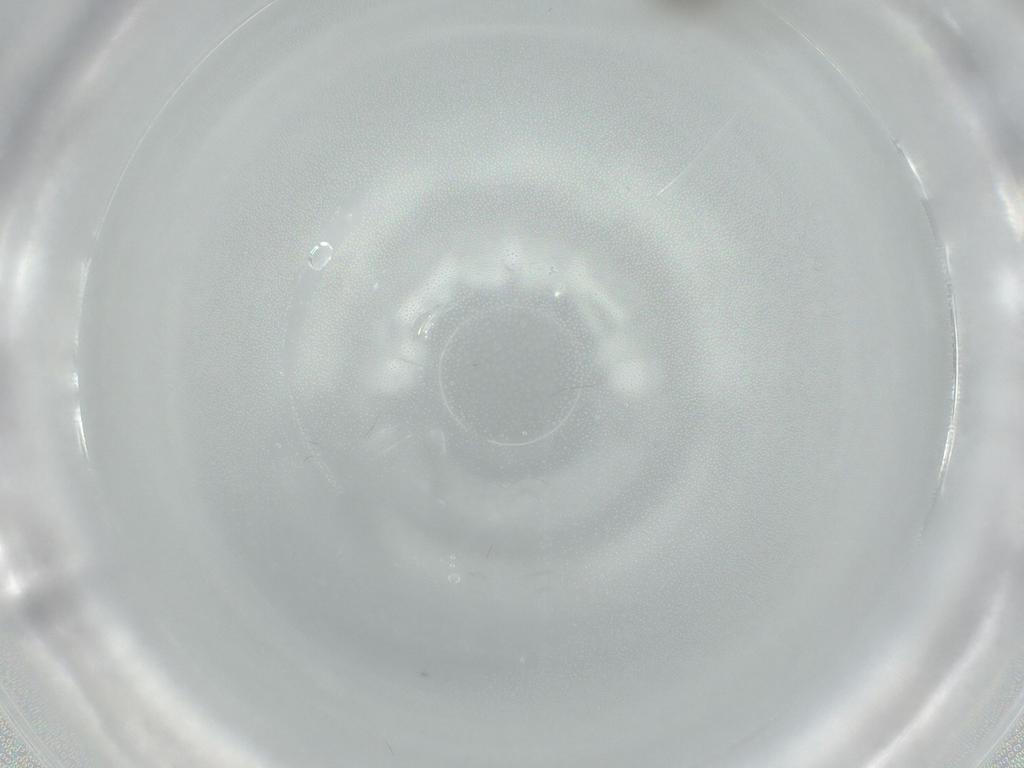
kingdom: Animalia
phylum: Arthropoda
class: Insecta
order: Diptera
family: Cecidomyiidae
